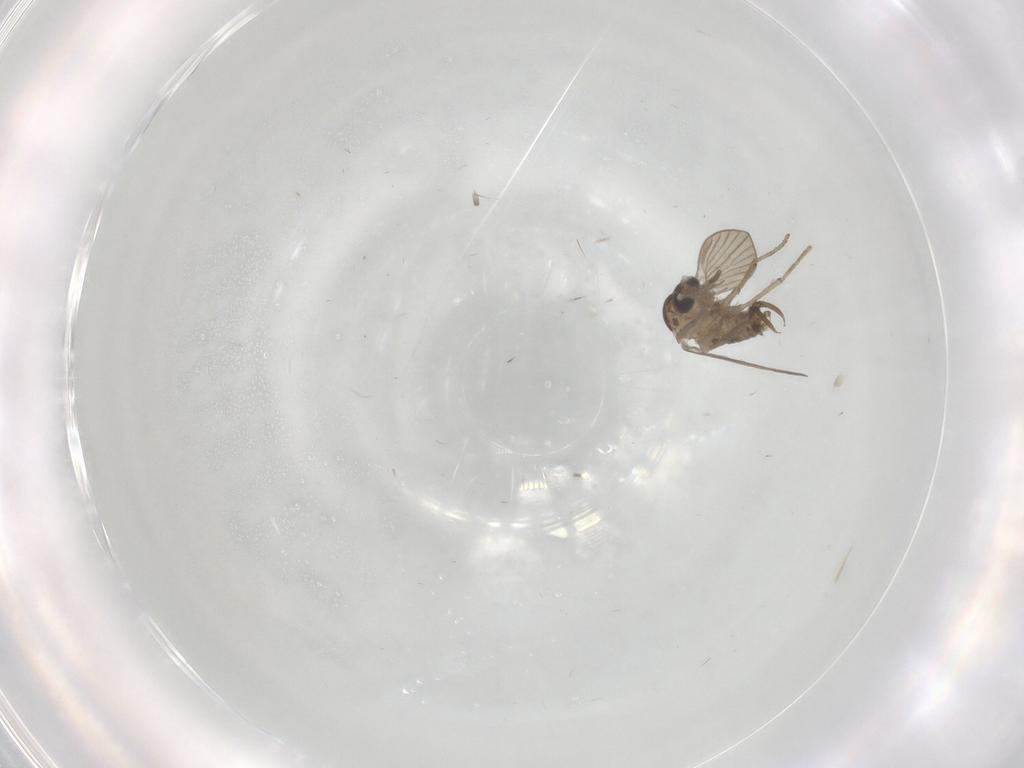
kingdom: Animalia
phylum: Arthropoda
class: Insecta
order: Diptera
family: Psychodidae
